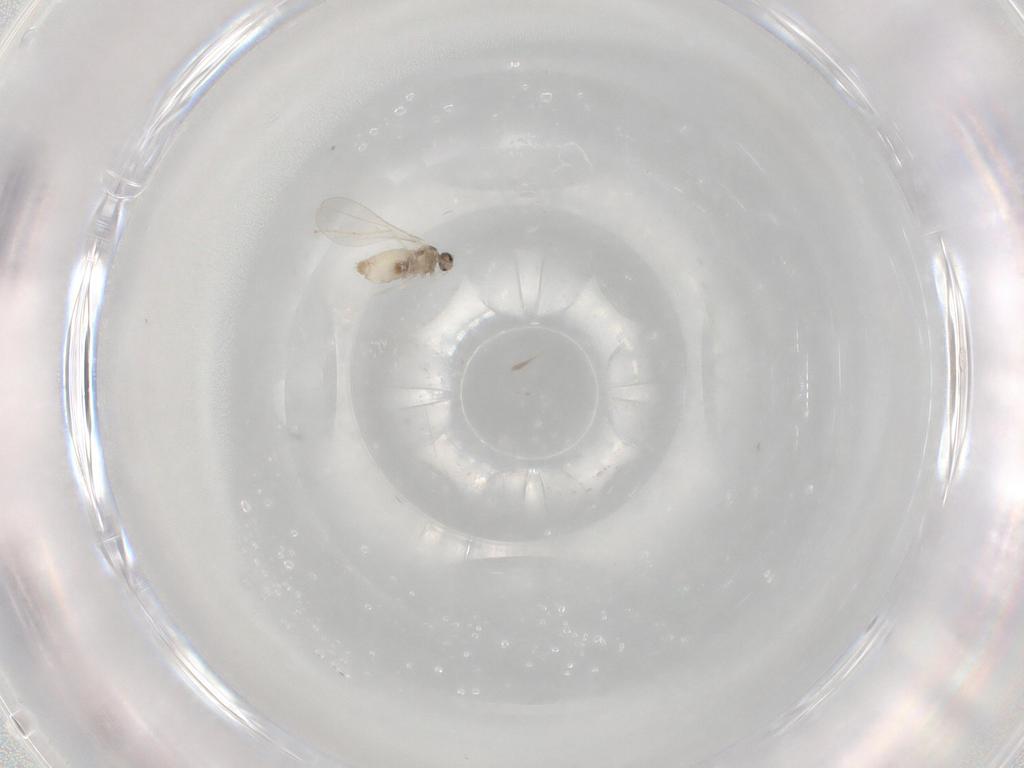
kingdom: Animalia
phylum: Arthropoda
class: Insecta
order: Diptera
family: Cecidomyiidae
